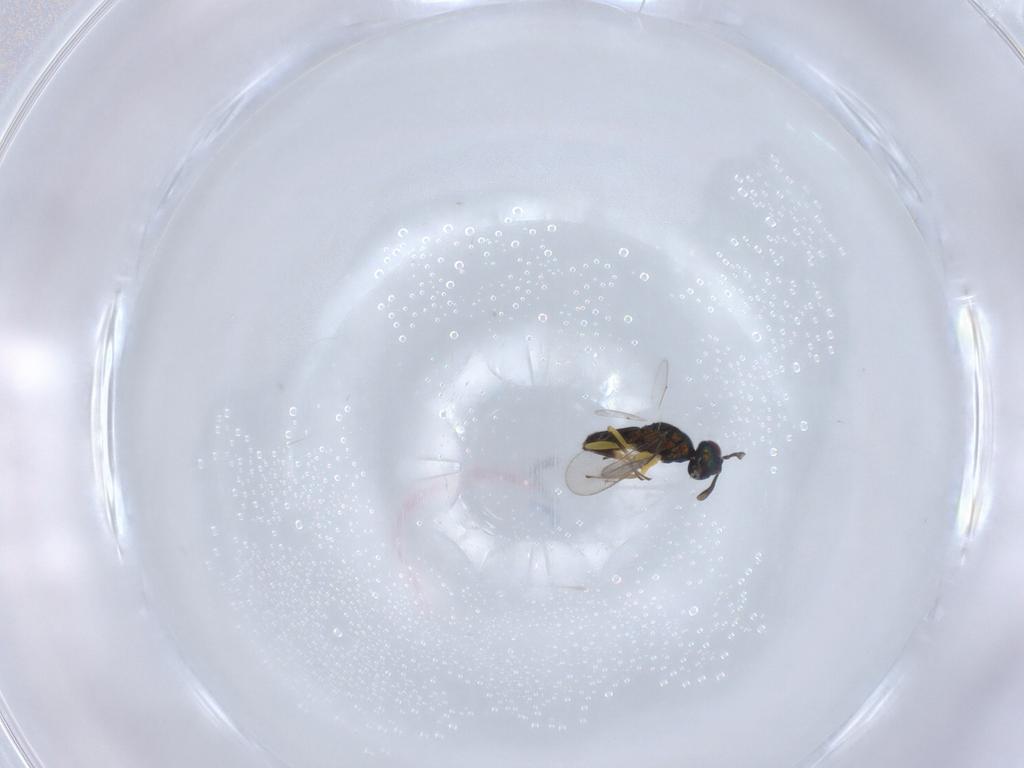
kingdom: Animalia
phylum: Arthropoda
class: Insecta
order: Hymenoptera
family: Eupelmidae
